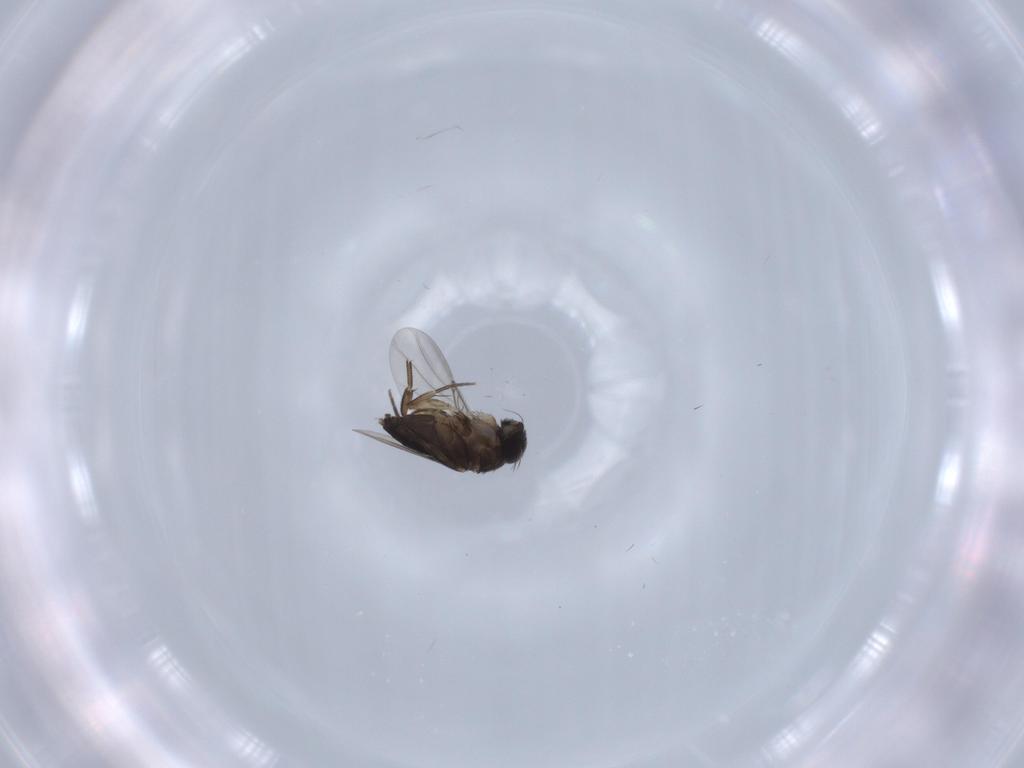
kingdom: Animalia
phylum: Arthropoda
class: Insecta
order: Diptera
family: Phoridae
